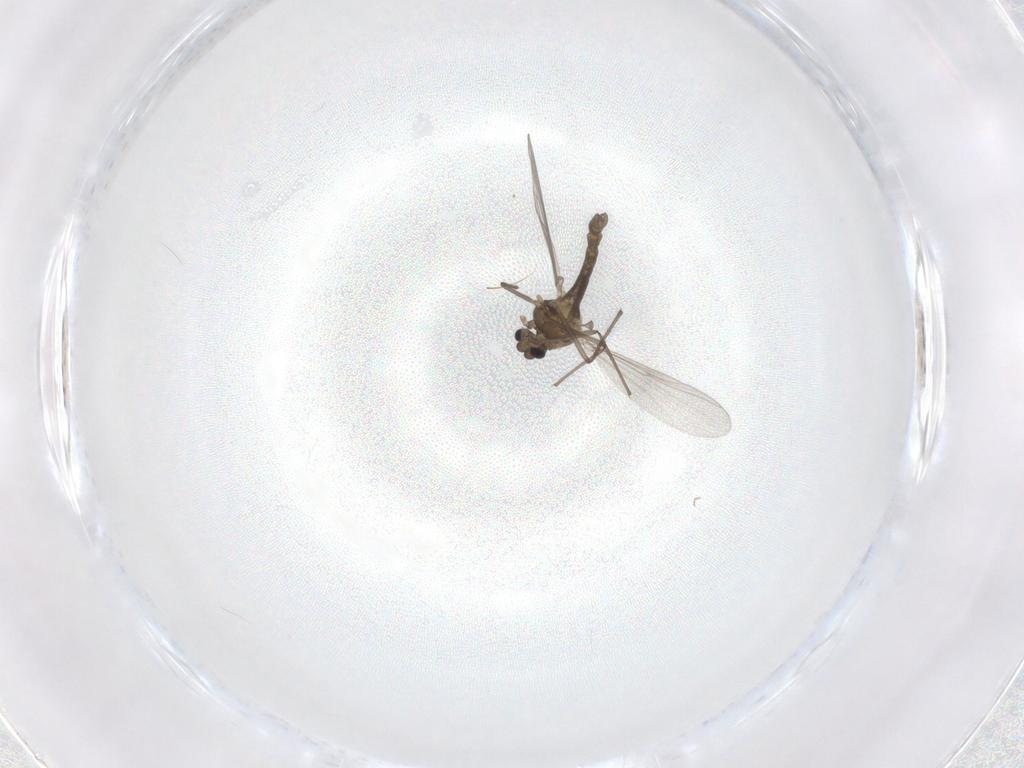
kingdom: Animalia
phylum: Arthropoda
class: Insecta
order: Diptera
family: Chironomidae
